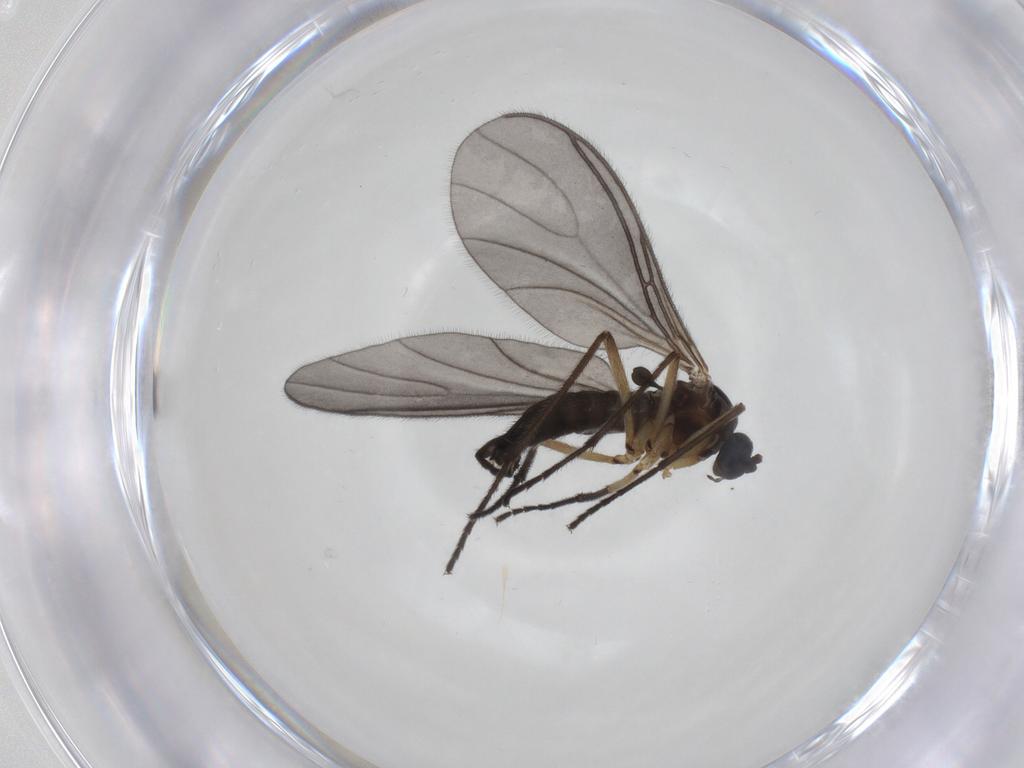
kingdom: Animalia
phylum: Arthropoda
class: Insecta
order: Diptera
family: Sciaridae
